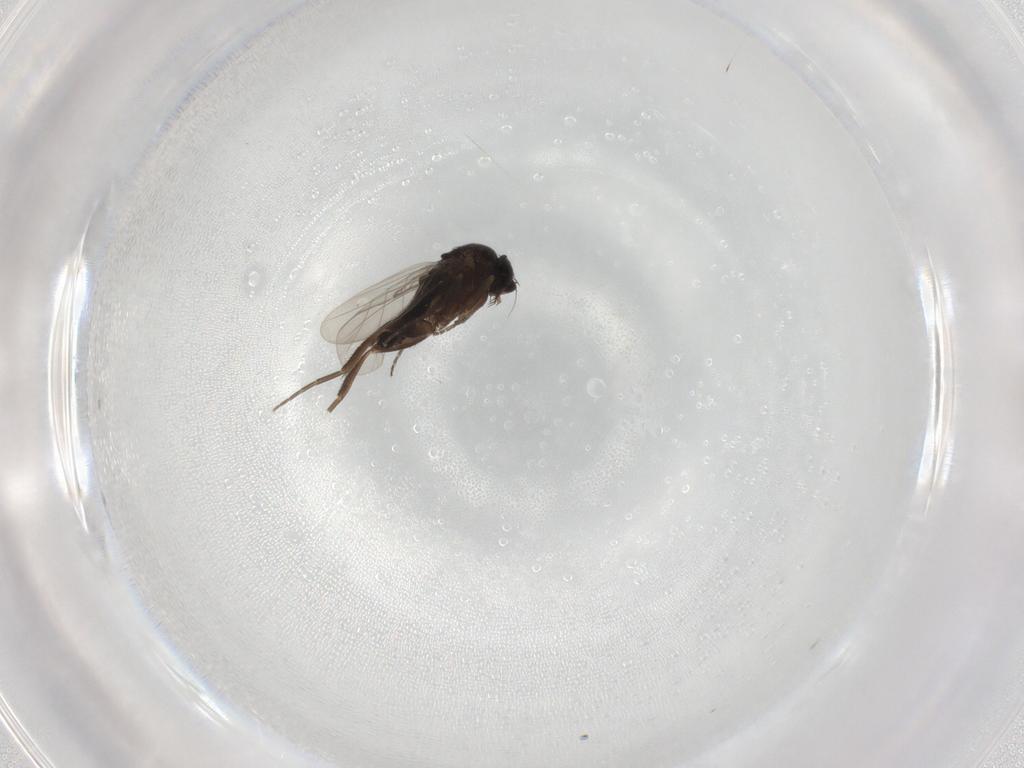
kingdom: Animalia
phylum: Arthropoda
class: Insecta
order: Diptera
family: Phoridae
